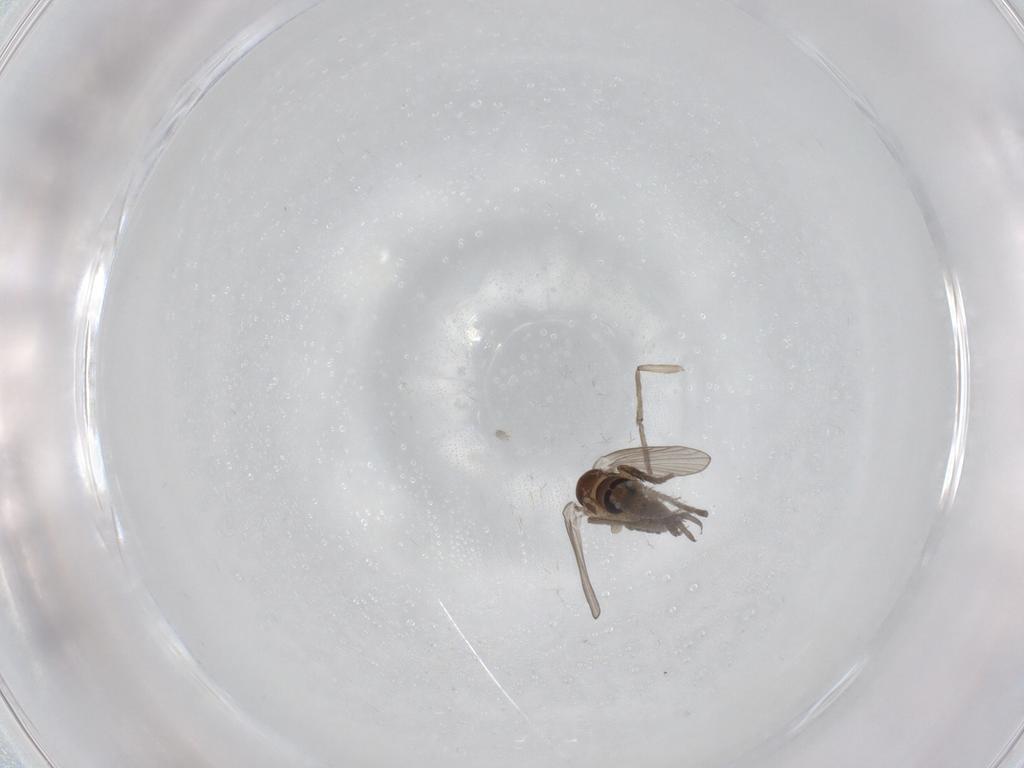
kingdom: Animalia
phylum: Arthropoda
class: Insecta
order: Diptera
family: Psychodidae
